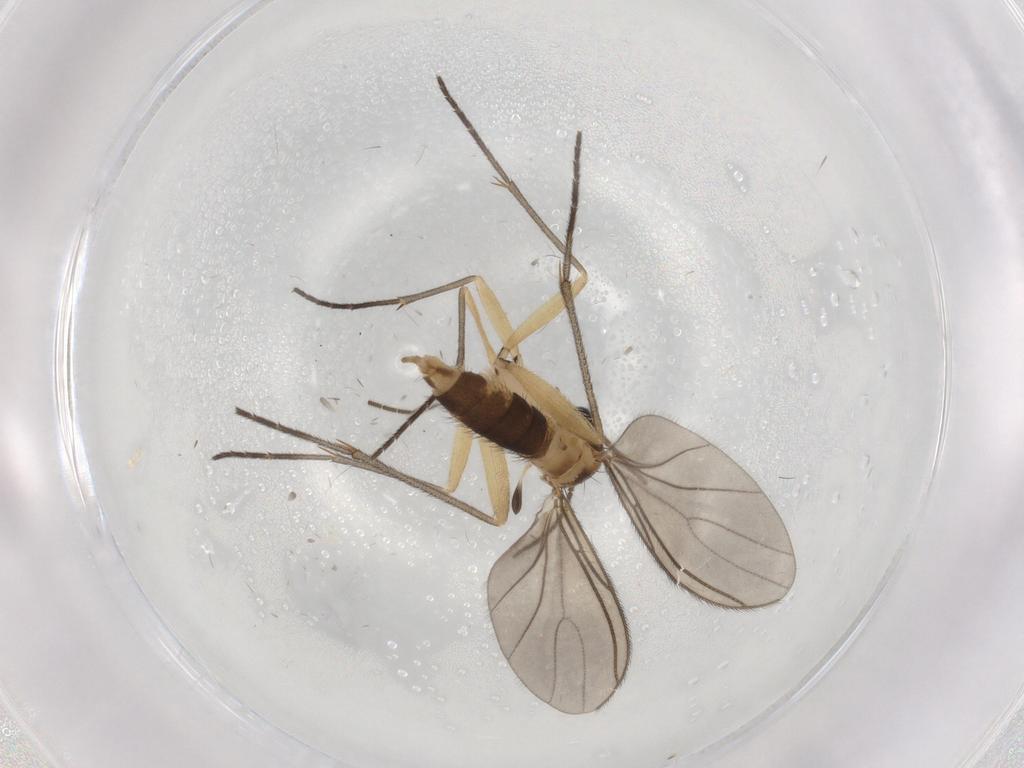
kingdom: Animalia
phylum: Arthropoda
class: Insecta
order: Diptera
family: Sciaridae
